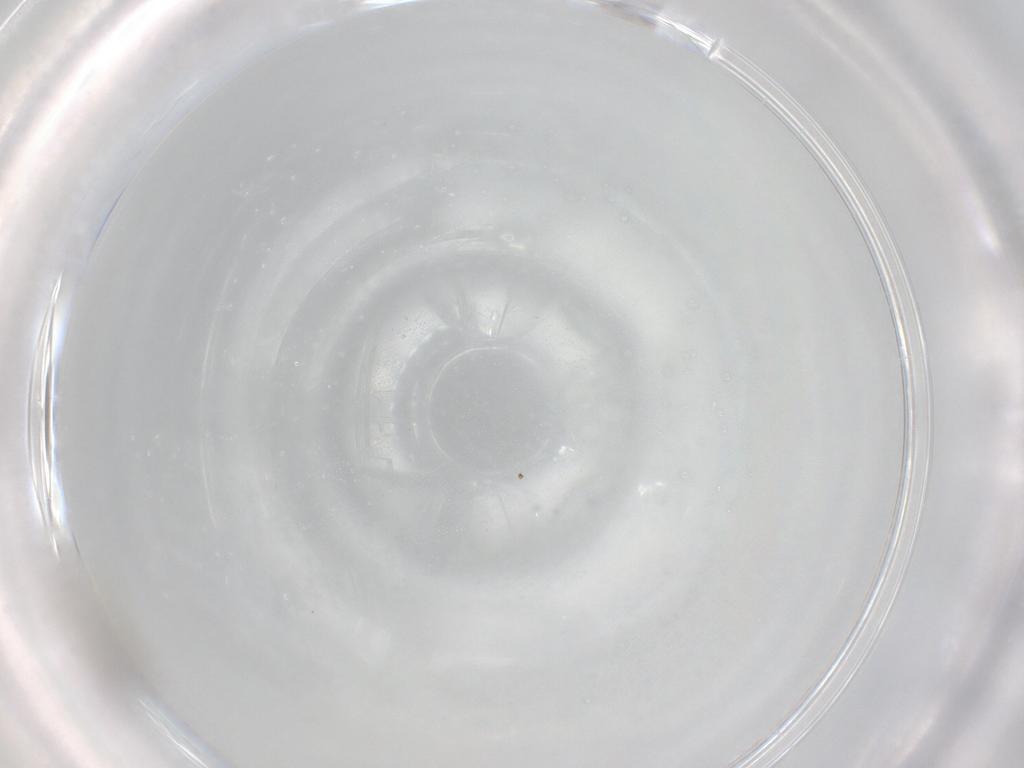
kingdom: Animalia
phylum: Arthropoda
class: Insecta
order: Diptera
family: Cecidomyiidae
